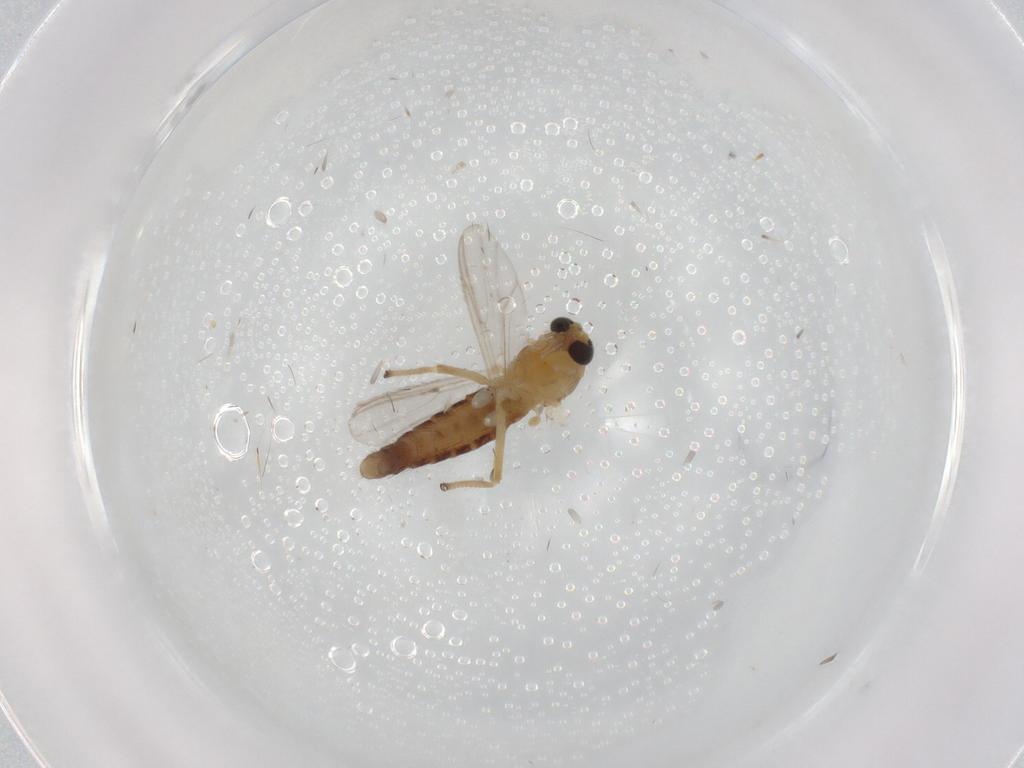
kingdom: Animalia
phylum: Arthropoda
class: Insecta
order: Diptera
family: Chironomidae
